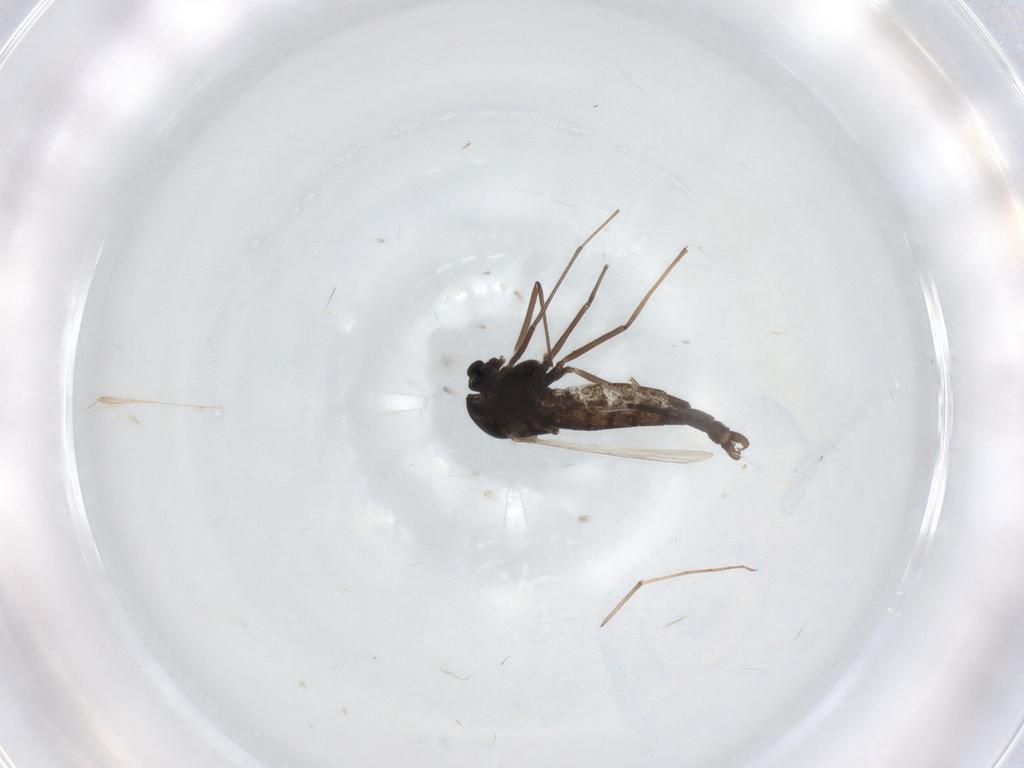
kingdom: Animalia
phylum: Arthropoda
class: Insecta
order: Diptera
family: Chironomidae
